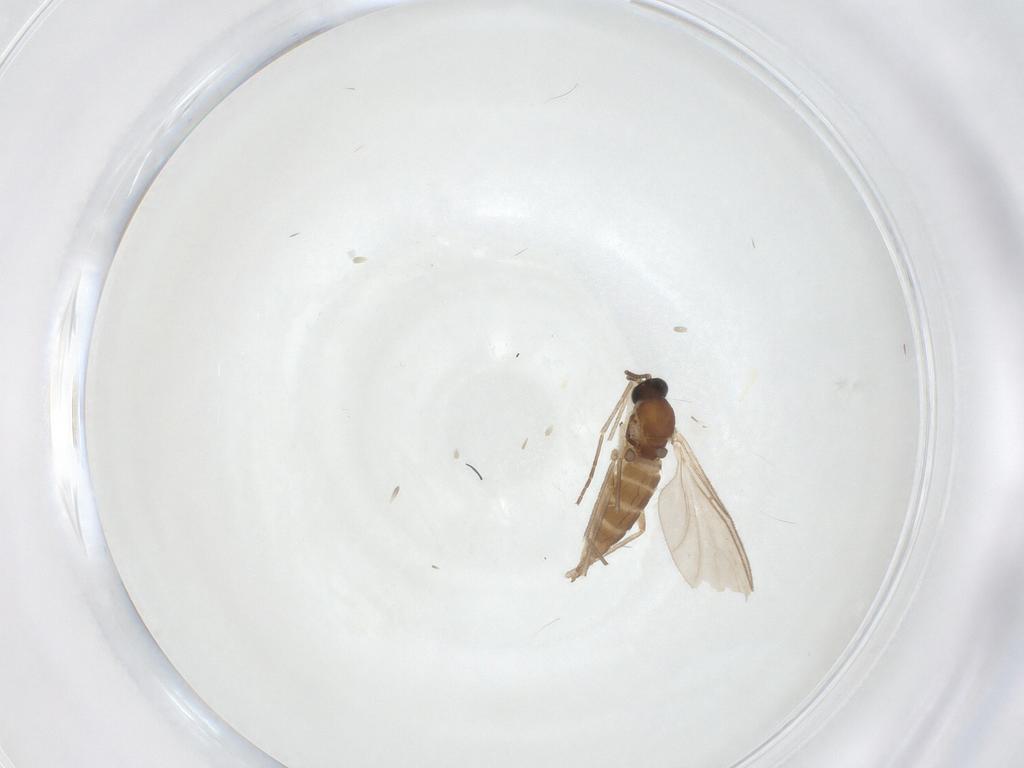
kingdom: Animalia
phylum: Arthropoda
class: Insecta
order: Diptera
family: Sciaridae
